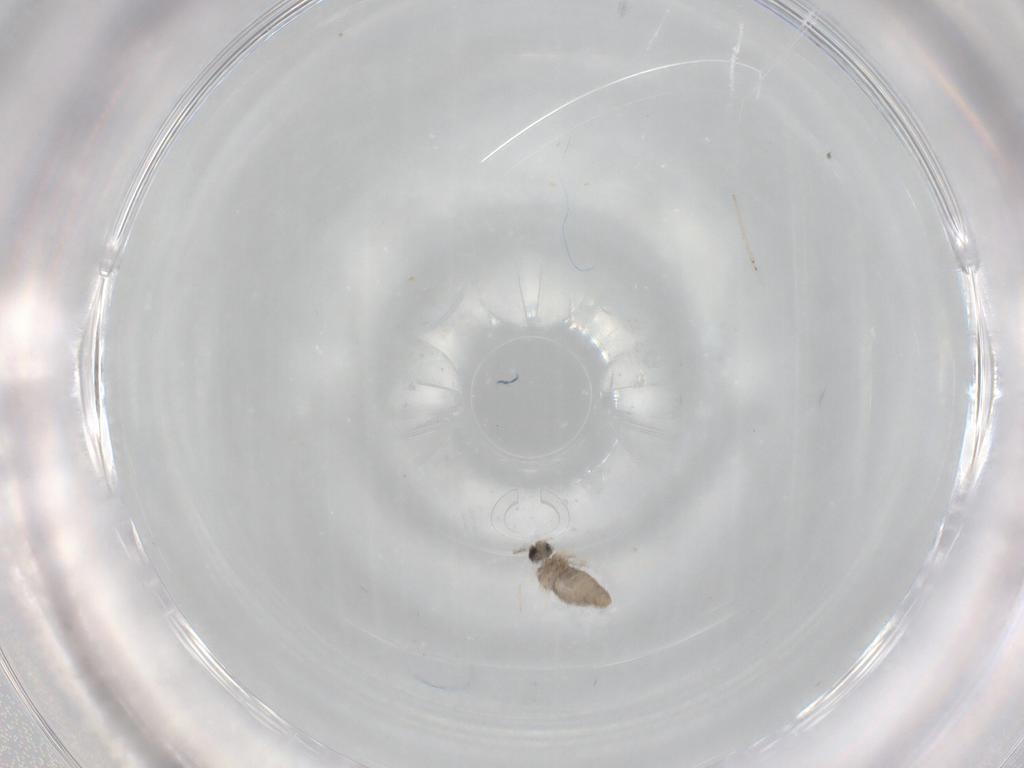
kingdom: Animalia
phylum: Arthropoda
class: Insecta
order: Diptera
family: Cecidomyiidae
